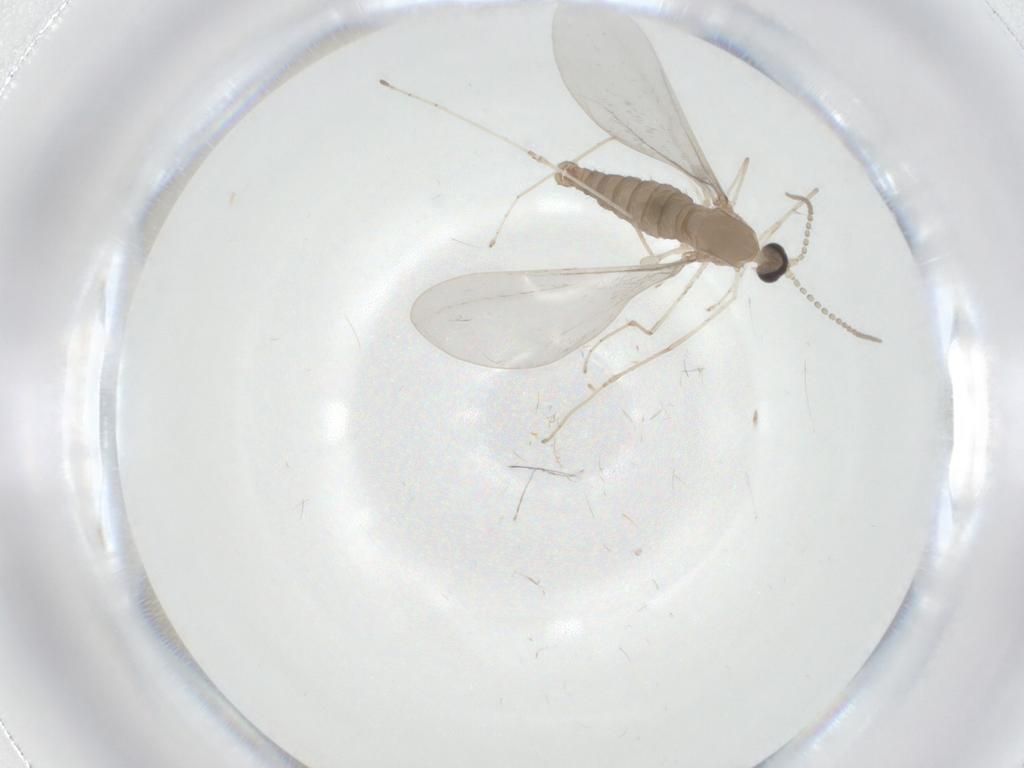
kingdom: Animalia
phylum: Arthropoda
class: Insecta
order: Diptera
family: Cecidomyiidae
